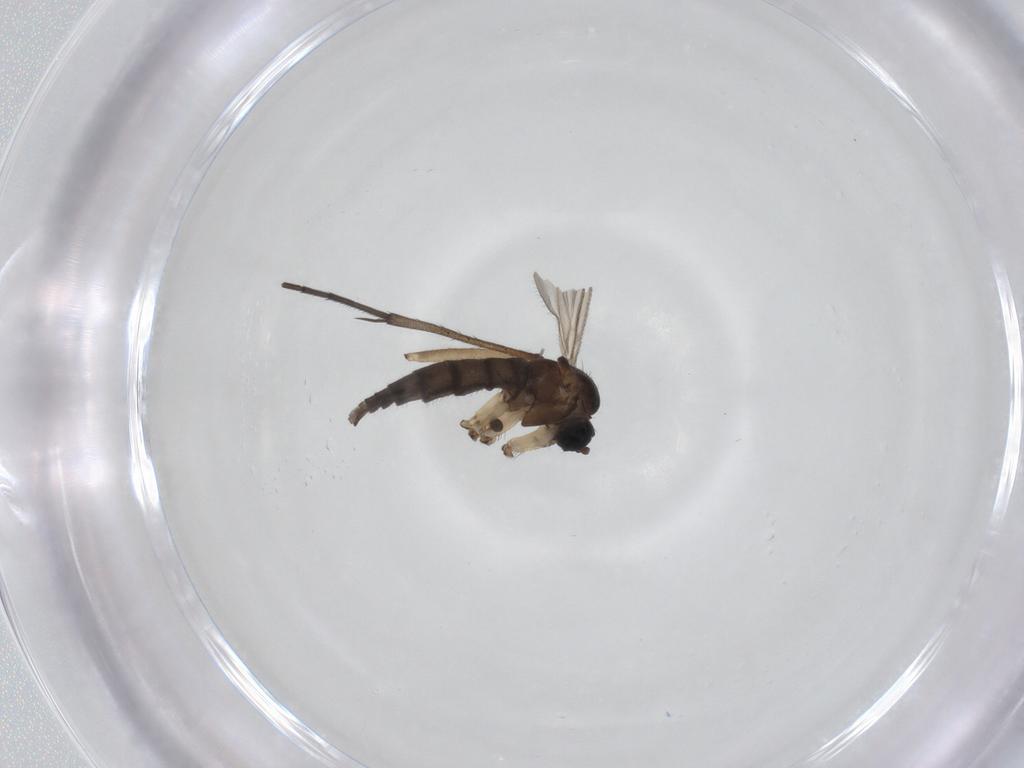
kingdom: Animalia
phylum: Arthropoda
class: Insecta
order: Diptera
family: Sciaridae
